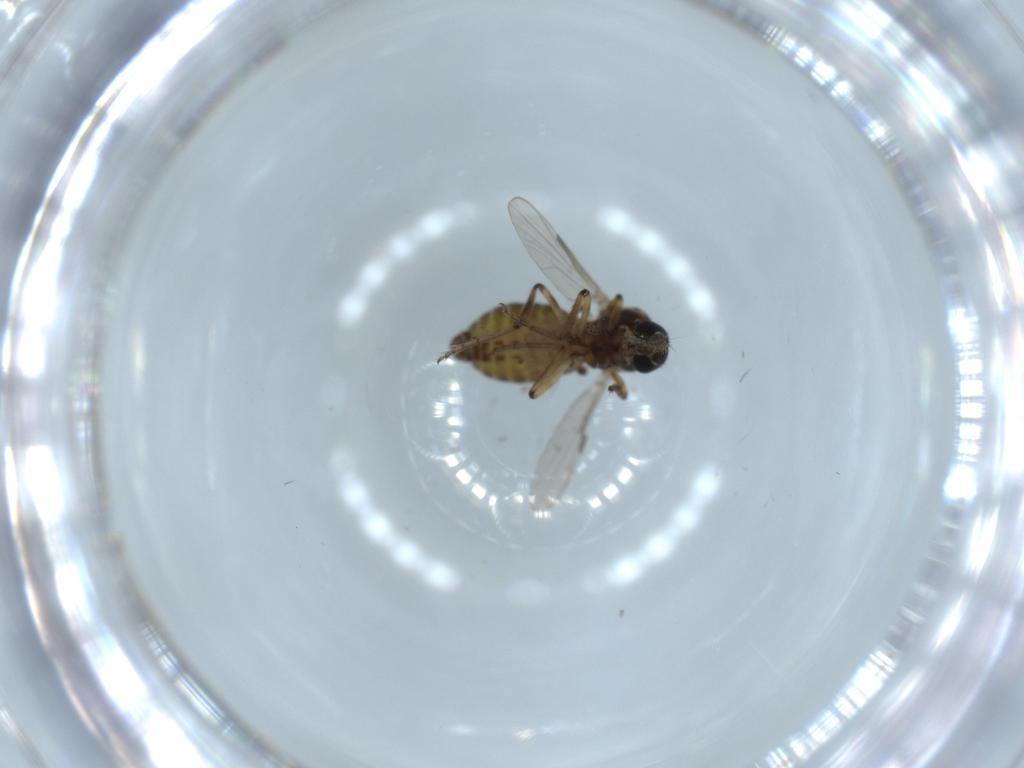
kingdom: Animalia
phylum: Arthropoda
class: Insecta
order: Diptera
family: Ceratopogonidae
